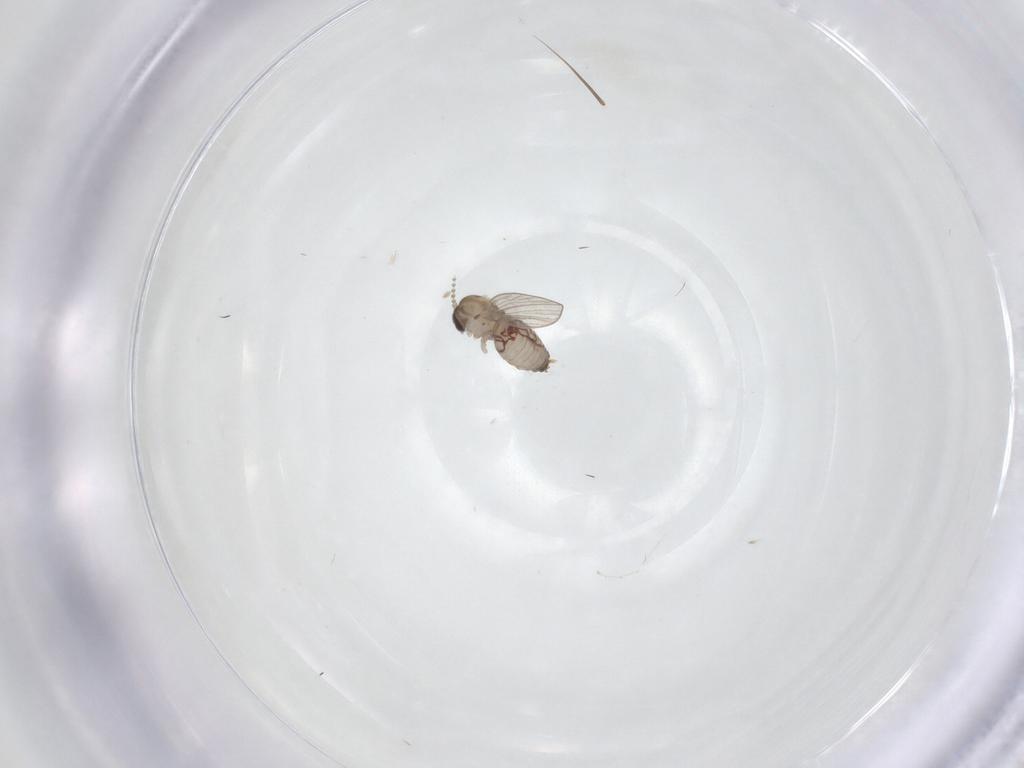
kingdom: Animalia
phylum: Arthropoda
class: Insecta
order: Diptera
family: Psychodidae
